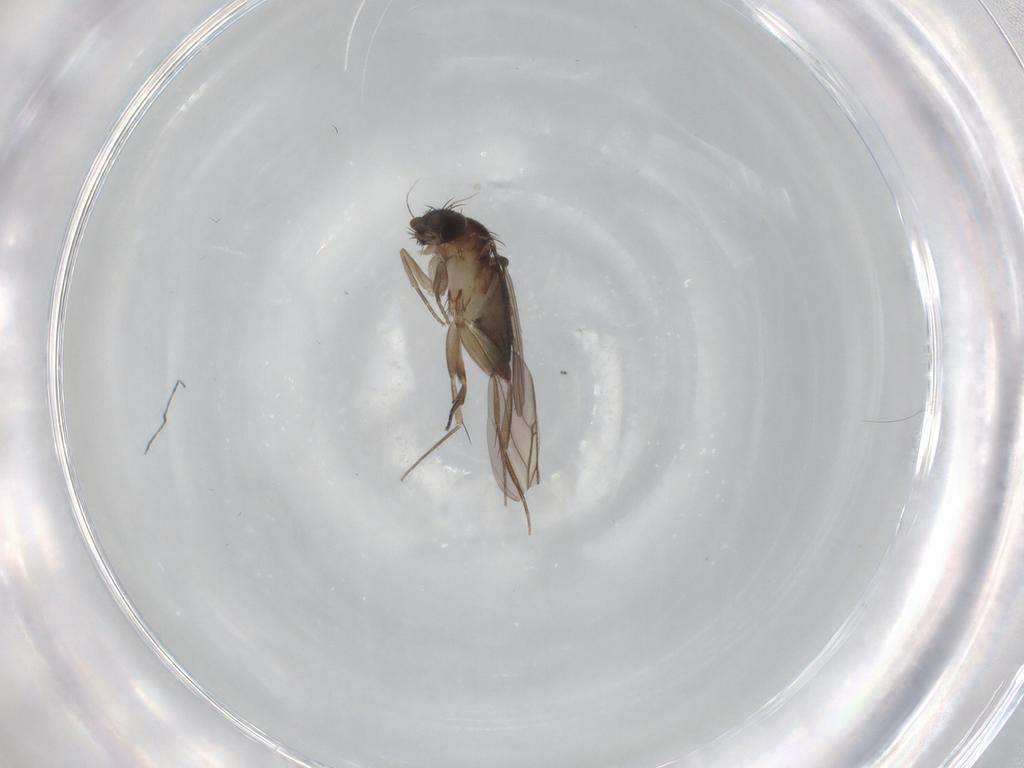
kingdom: Animalia
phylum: Arthropoda
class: Insecta
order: Diptera
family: Phoridae
